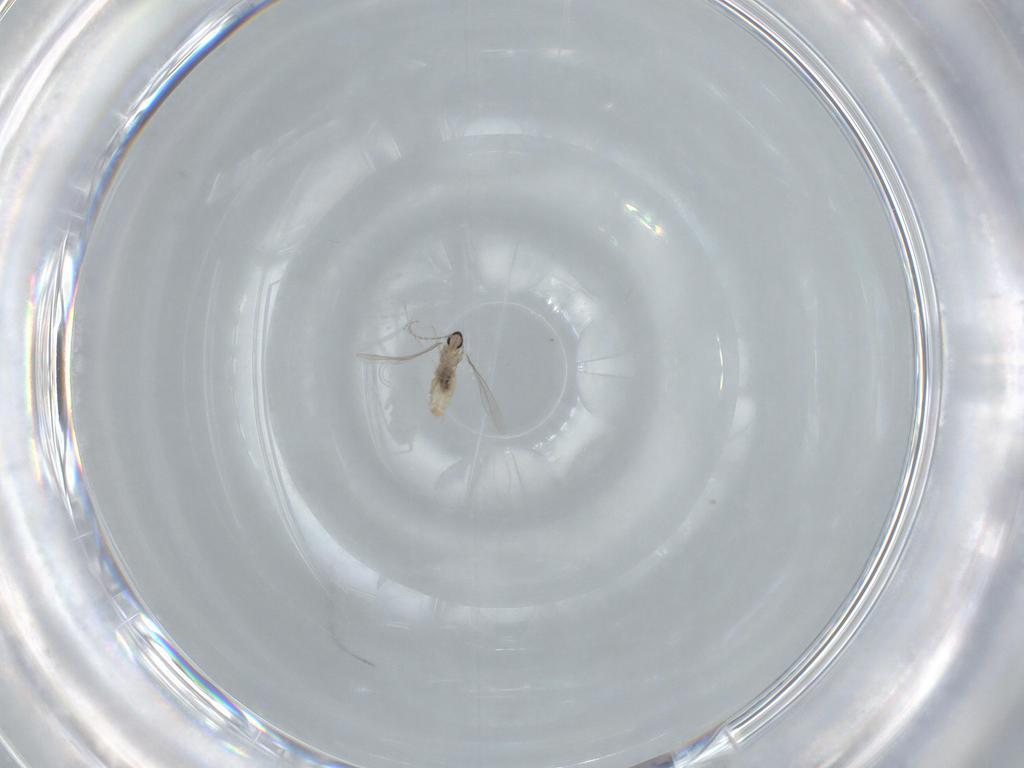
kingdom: Animalia
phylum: Arthropoda
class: Insecta
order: Diptera
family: Cecidomyiidae
